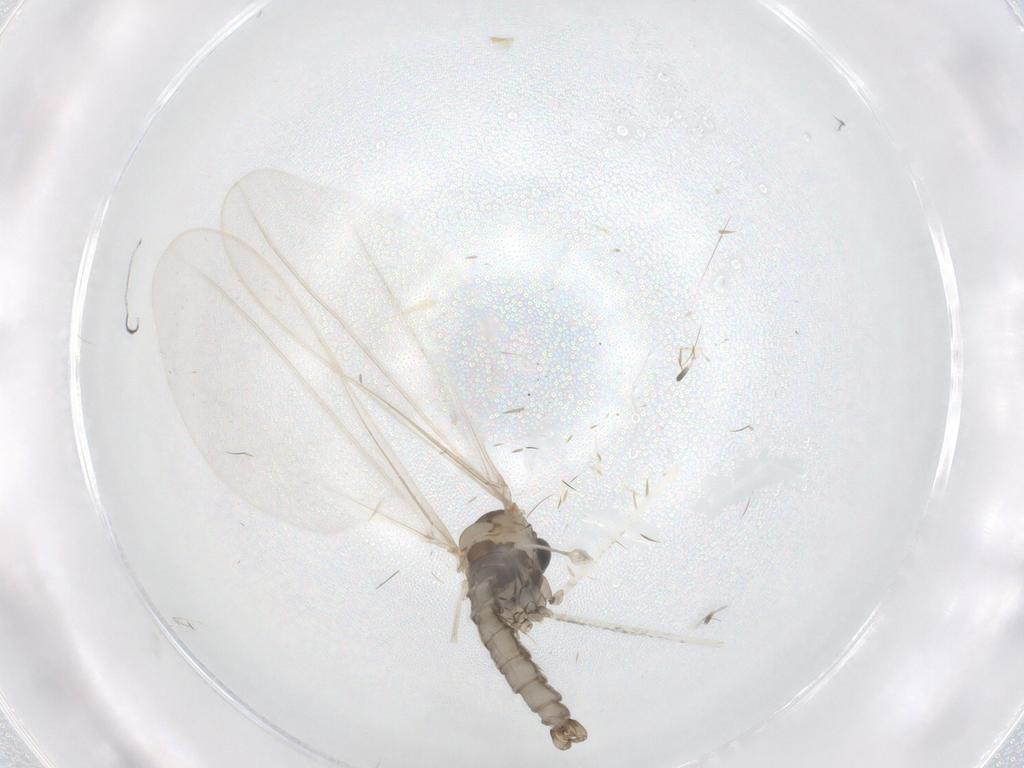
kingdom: Animalia
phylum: Arthropoda
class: Insecta
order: Diptera
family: Cecidomyiidae
